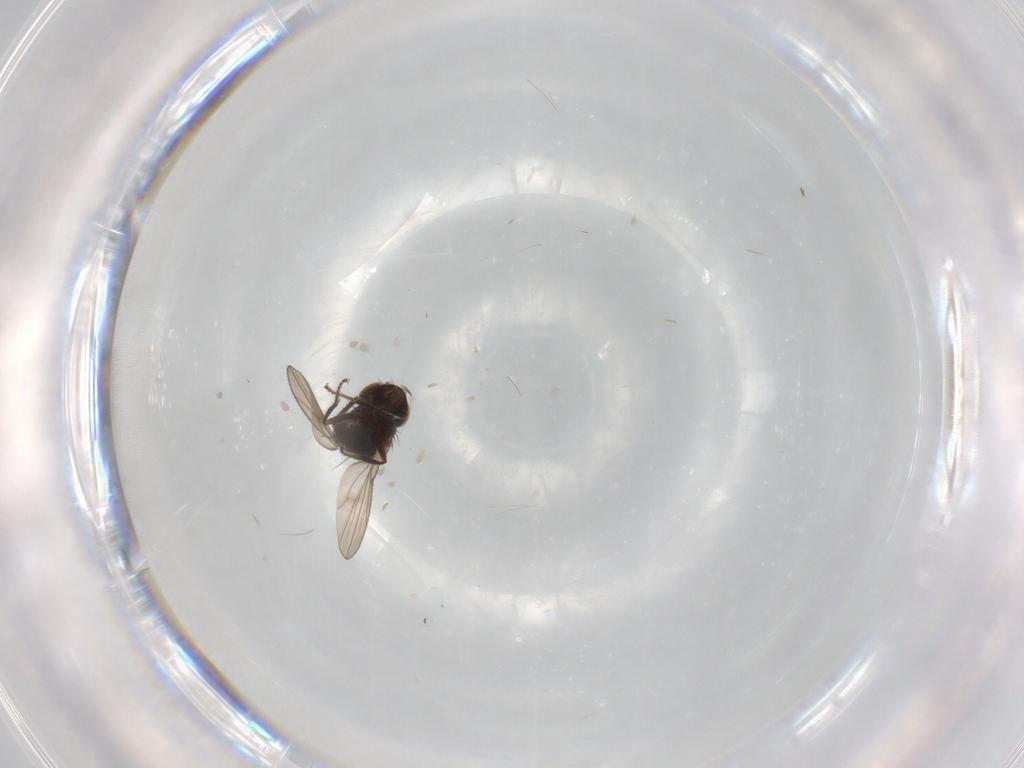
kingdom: Animalia
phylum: Arthropoda
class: Insecta
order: Diptera
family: Ephydridae
